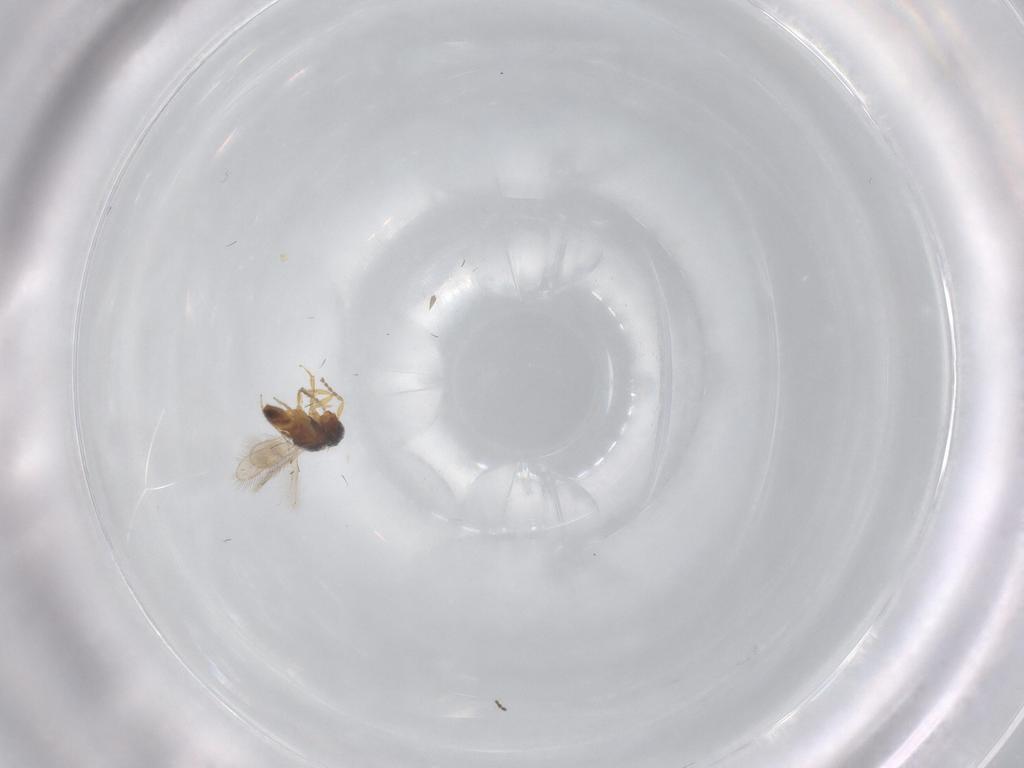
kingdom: Animalia
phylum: Arthropoda
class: Insecta
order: Hymenoptera
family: Scelionidae
